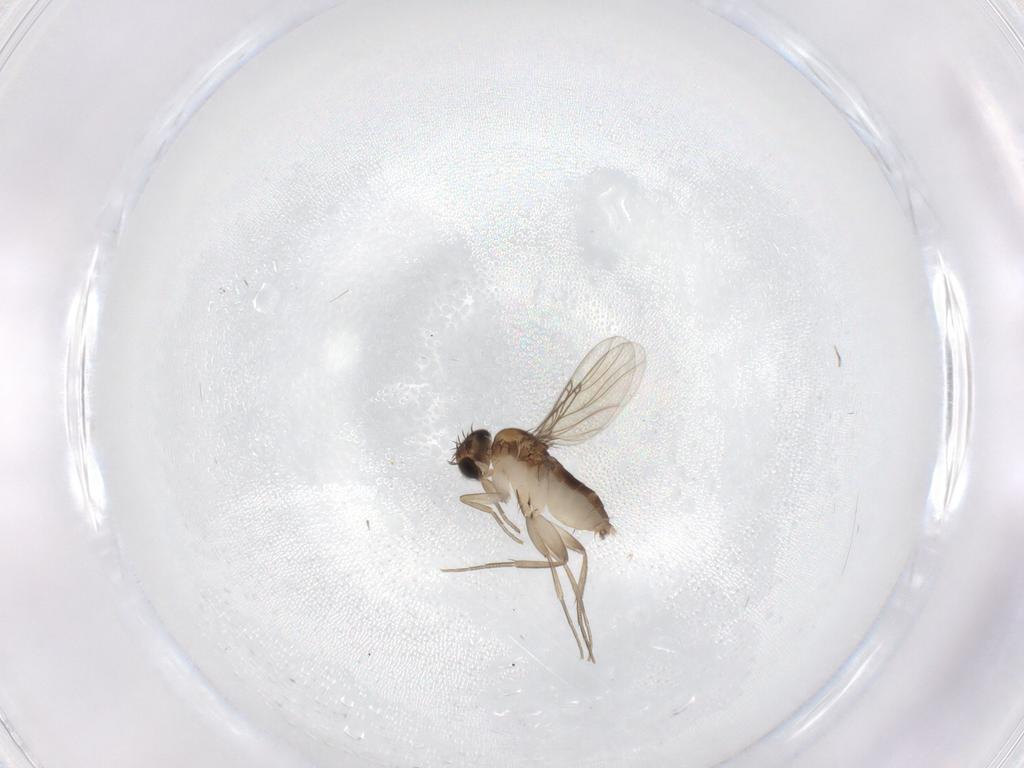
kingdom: Animalia
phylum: Arthropoda
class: Insecta
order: Diptera
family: Phoridae
